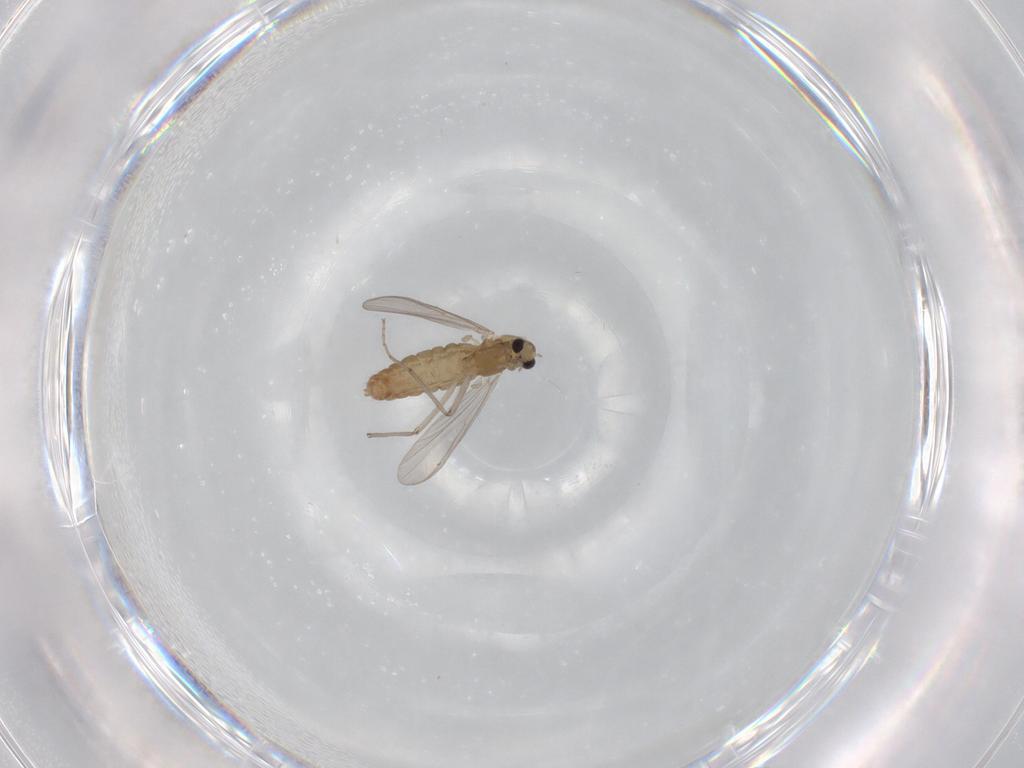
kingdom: Animalia
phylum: Arthropoda
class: Insecta
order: Diptera
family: Chironomidae
